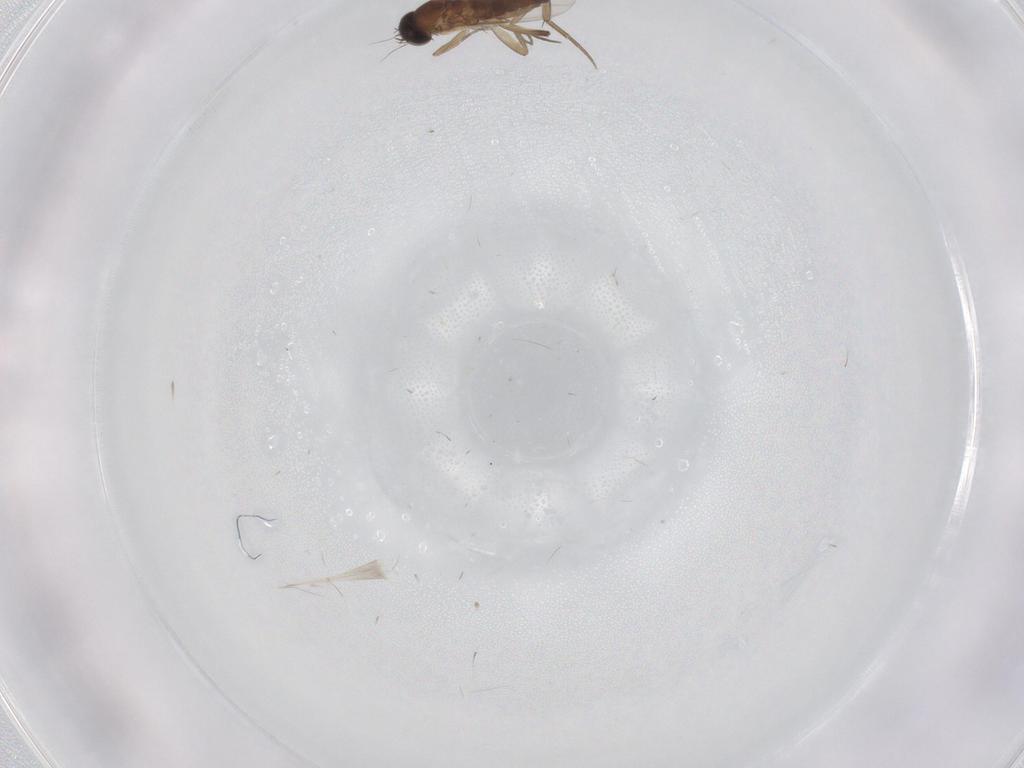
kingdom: Animalia
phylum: Arthropoda
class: Insecta
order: Diptera
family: Phoridae
